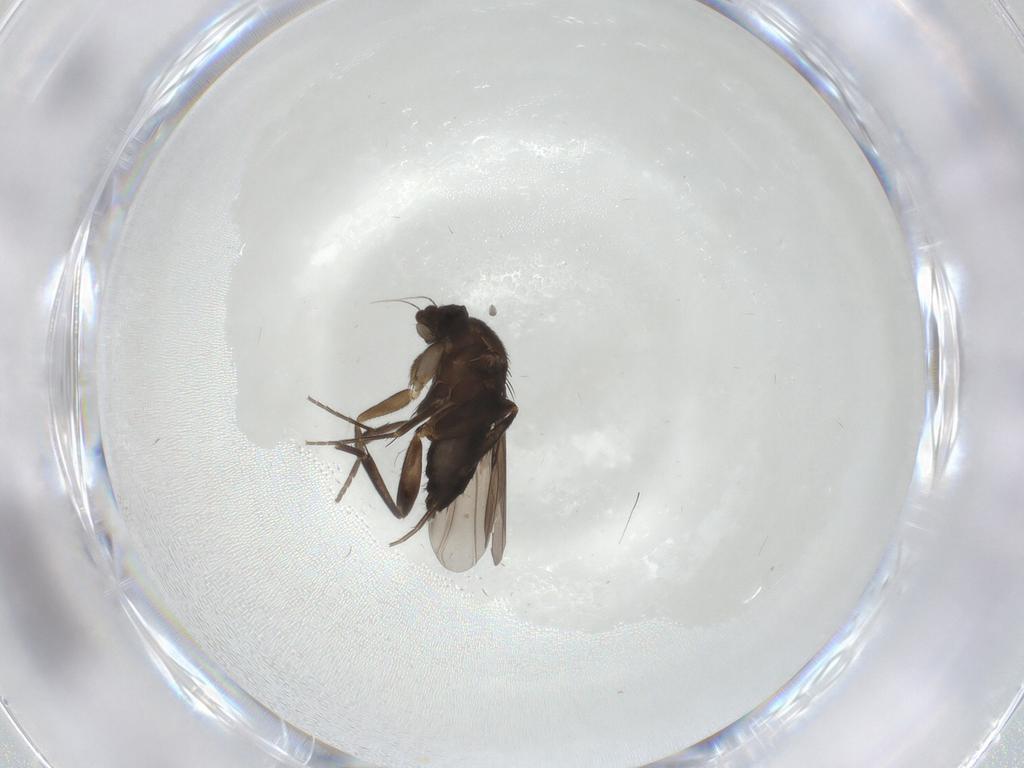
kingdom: Animalia
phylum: Arthropoda
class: Insecta
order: Diptera
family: Phoridae
